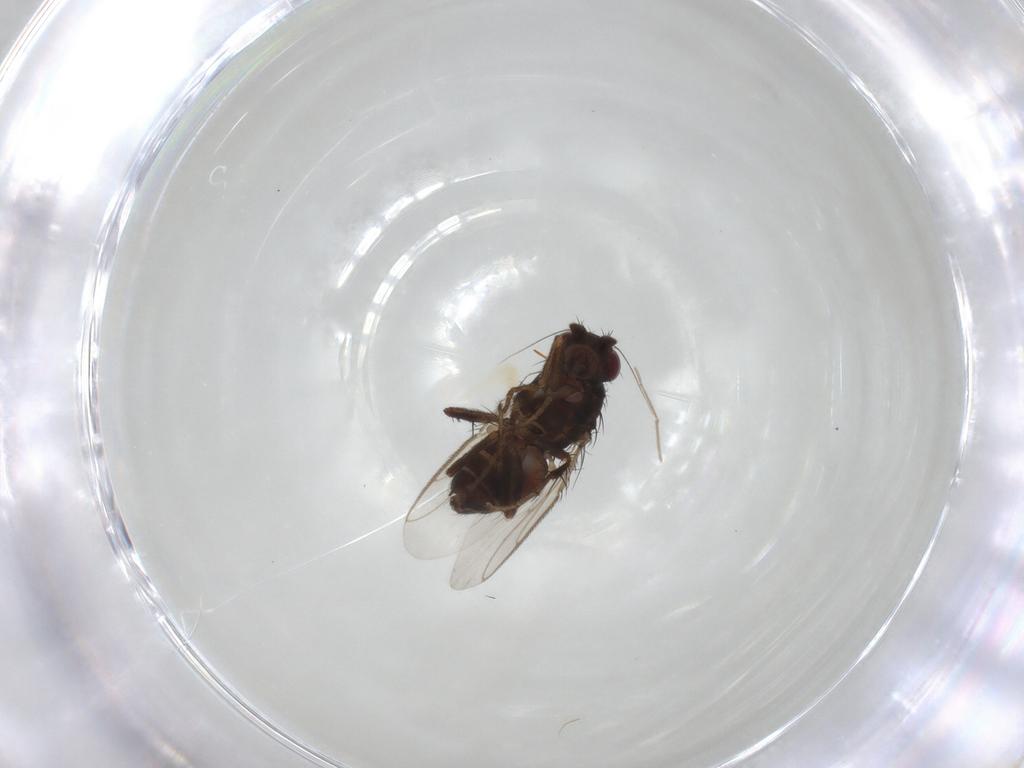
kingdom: Animalia
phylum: Arthropoda
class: Insecta
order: Diptera
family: Sphaeroceridae
